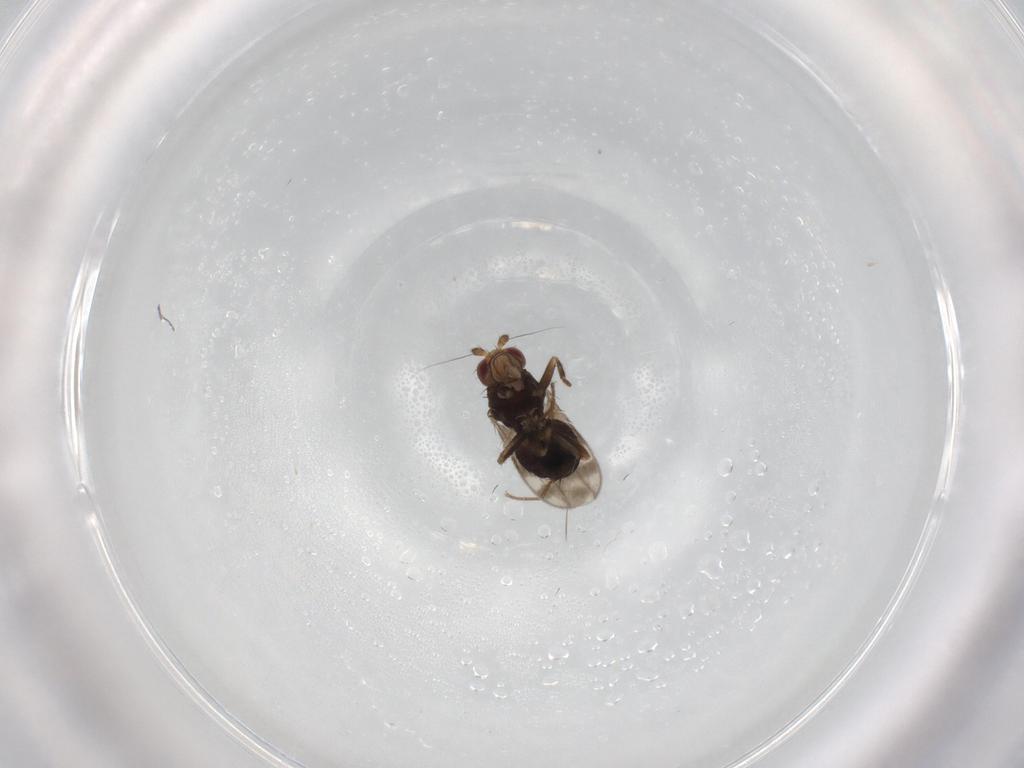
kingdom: Animalia
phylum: Arthropoda
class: Insecta
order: Diptera
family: Sphaeroceridae
